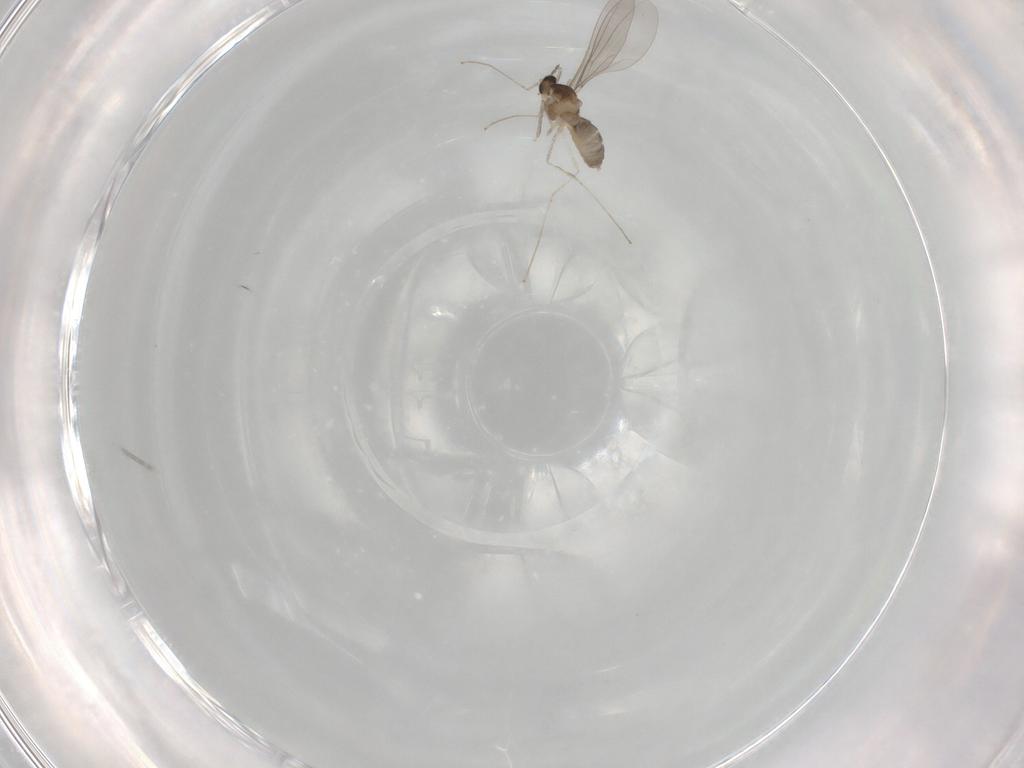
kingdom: Animalia
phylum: Arthropoda
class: Insecta
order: Diptera
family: Cecidomyiidae
